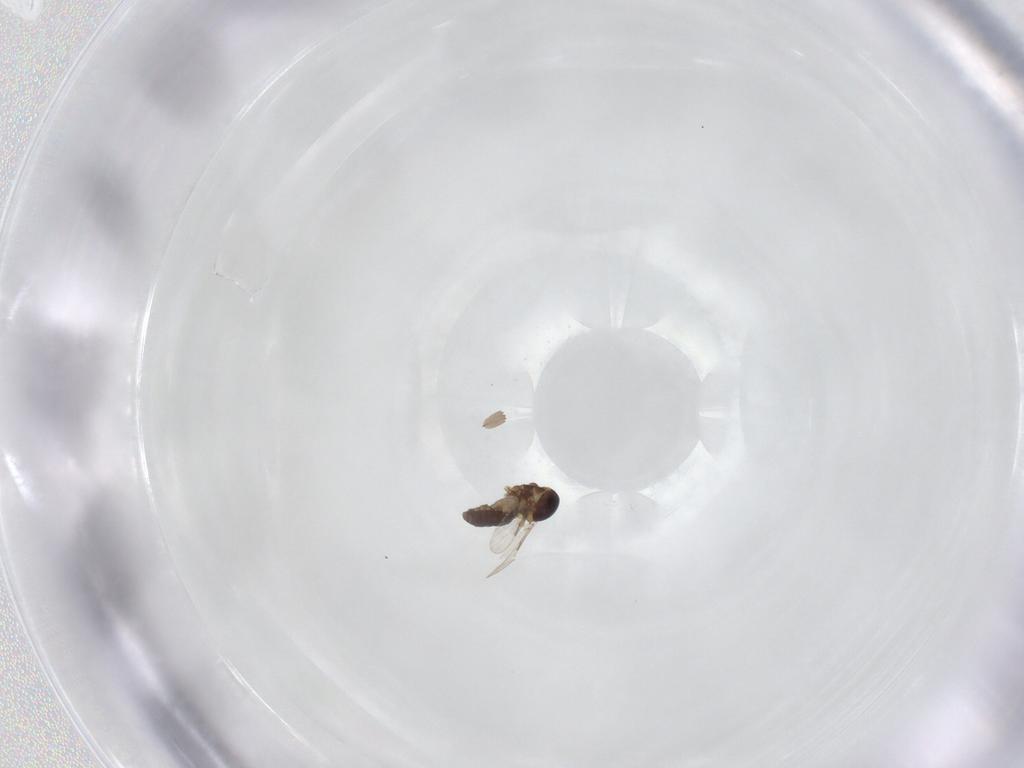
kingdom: Animalia
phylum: Arthropoda
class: Insecta
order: Diptera
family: Ceratopogonidae
